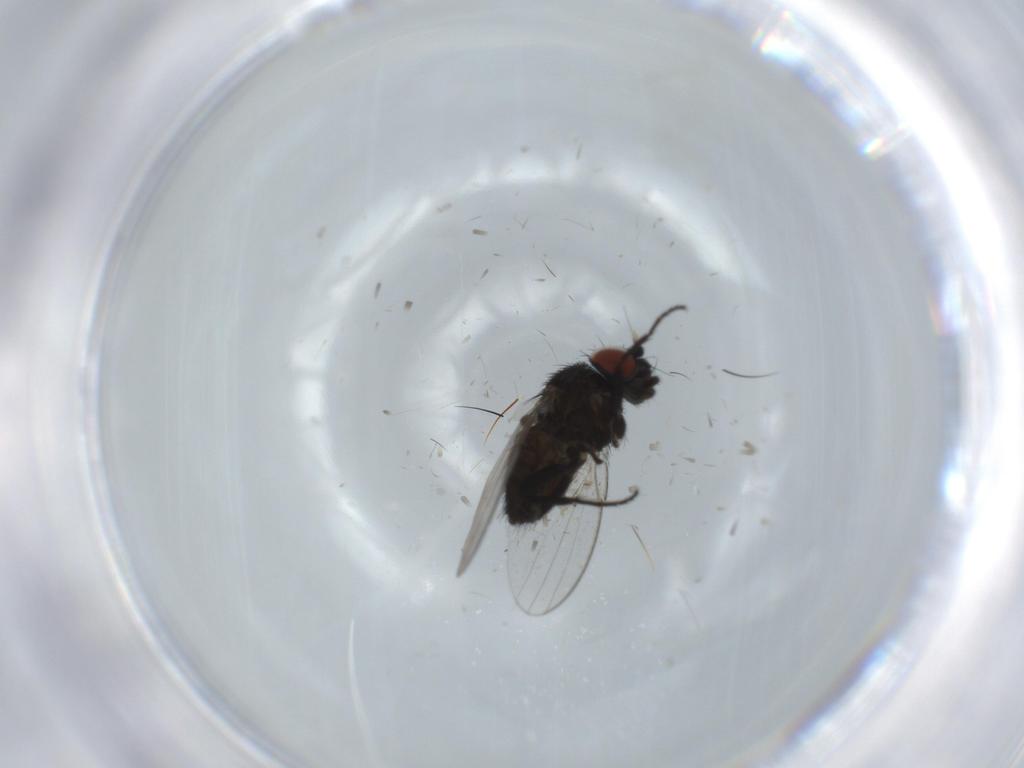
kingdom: Animalia
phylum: Arthropoda
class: Insecta
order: Diptera
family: Milichiidae
